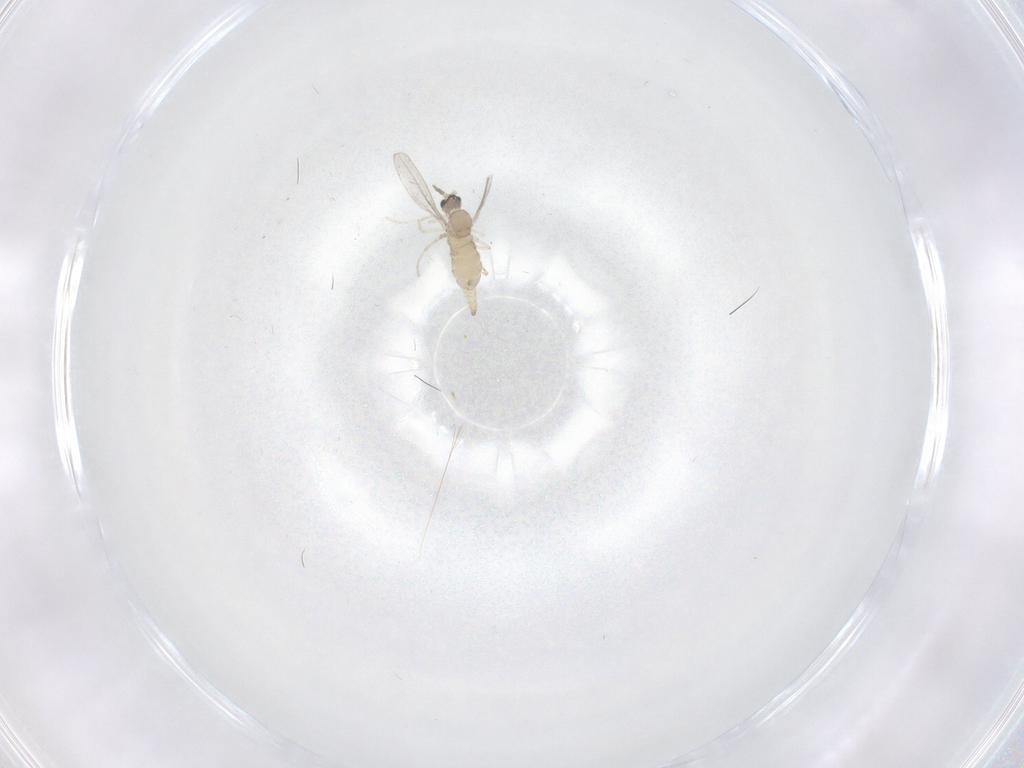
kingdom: Animalia
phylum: Arthropoda
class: Insecta
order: Diptera
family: Cecidomyiidae
